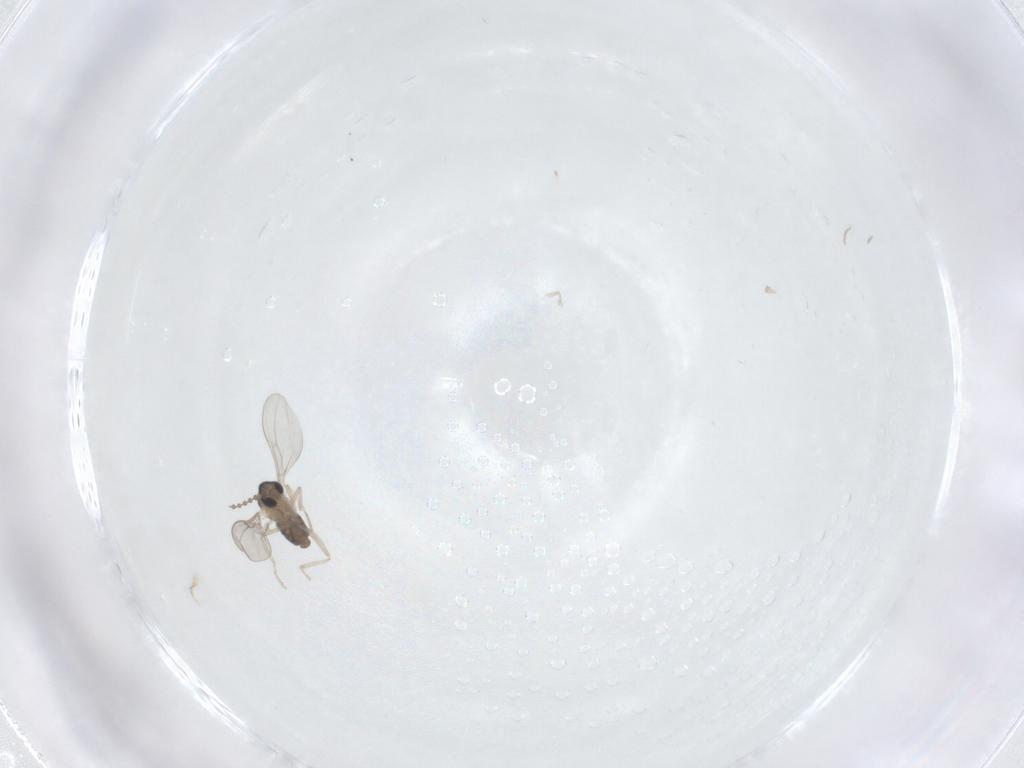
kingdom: Animalia
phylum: Arthropoda
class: Insecta
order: Diptera
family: Cecidomyiidae
